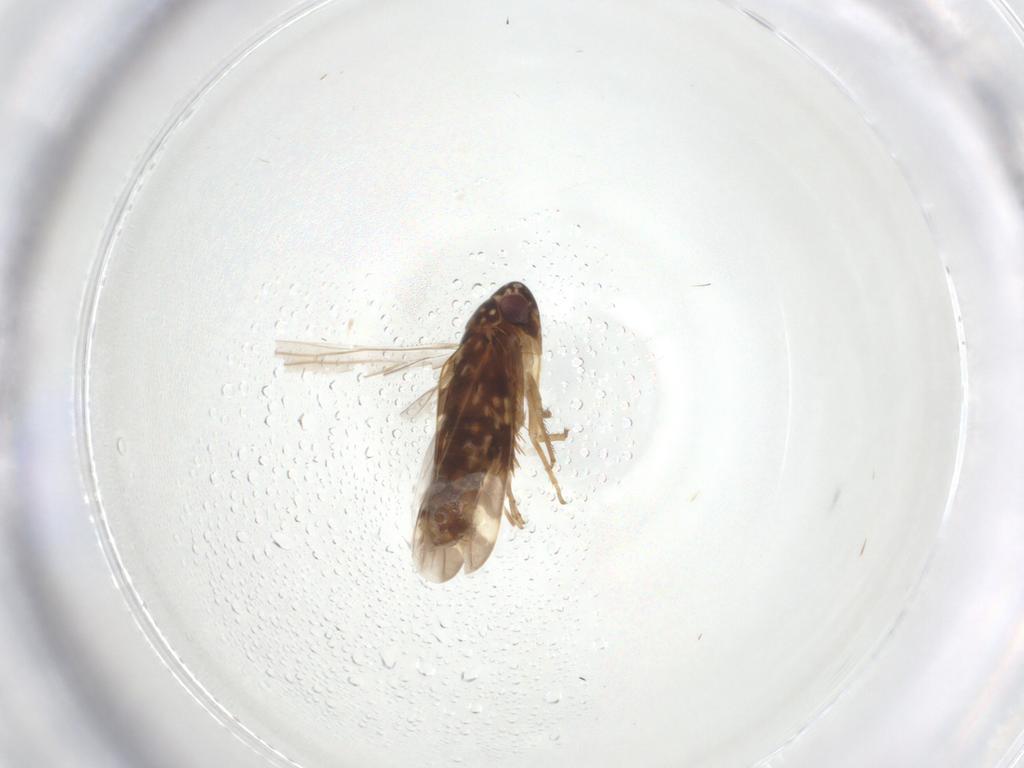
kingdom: Animalia
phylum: Arthropoda
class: Insecta
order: Hemiptera
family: Cicadellidae
